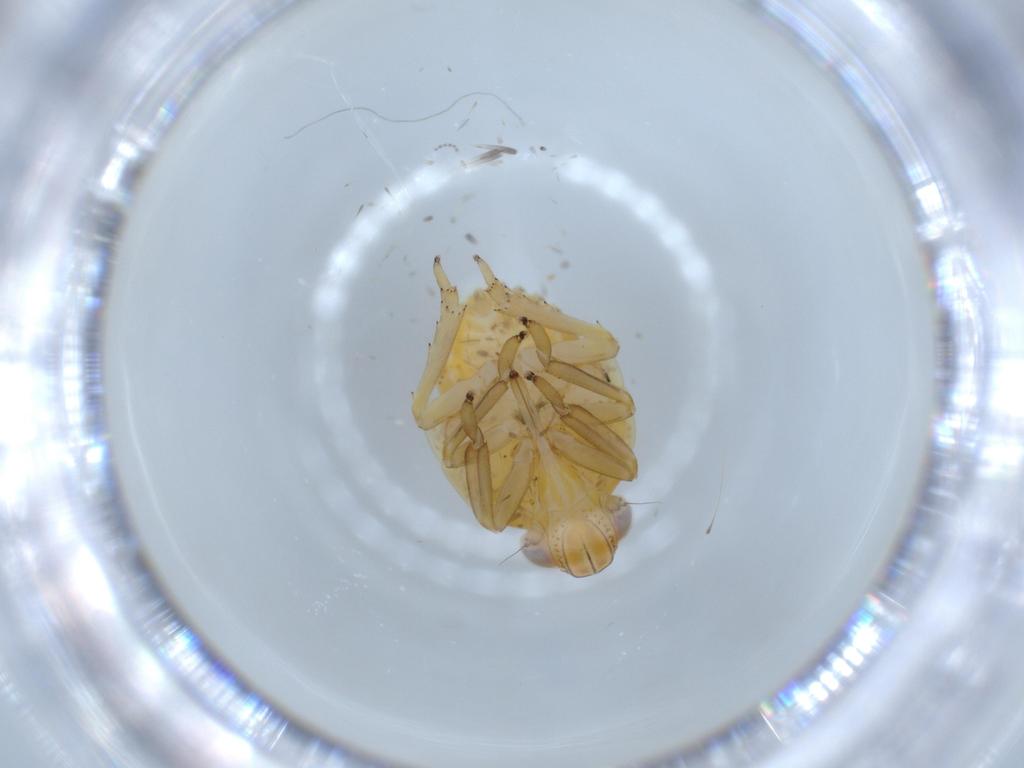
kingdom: Animalia
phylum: Arthropoda
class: Insecta
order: Hemiptera
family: Issidae
